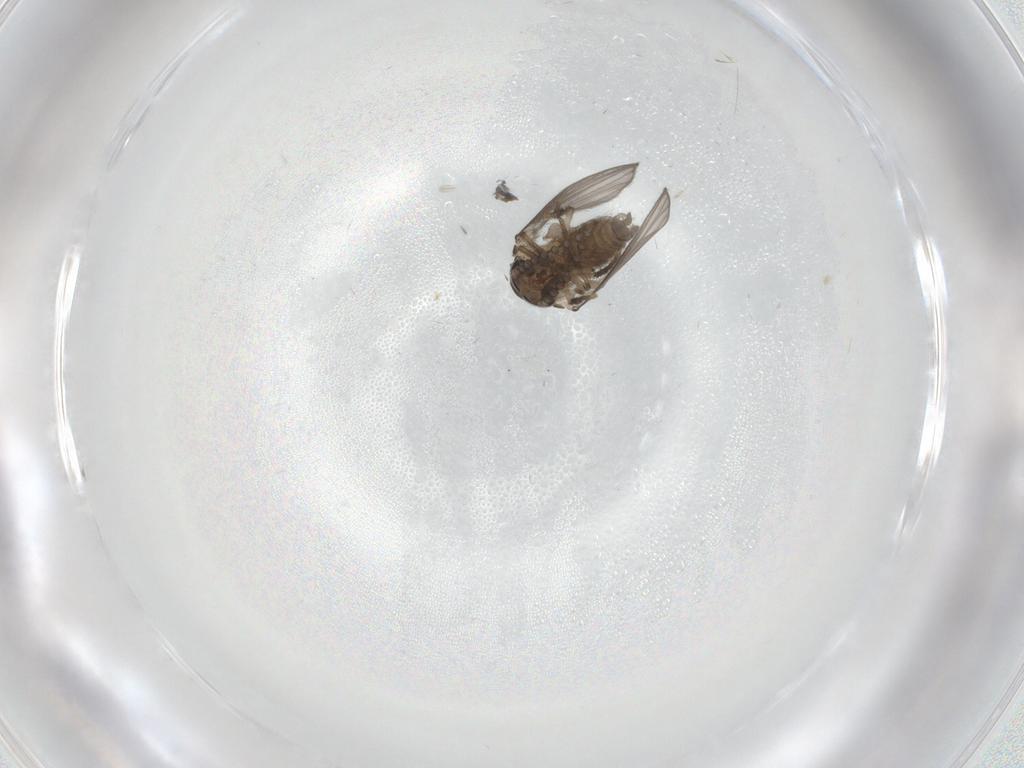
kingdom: Animalia
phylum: Arthropoda
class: Insecta
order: Diptera
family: Psychodidae
